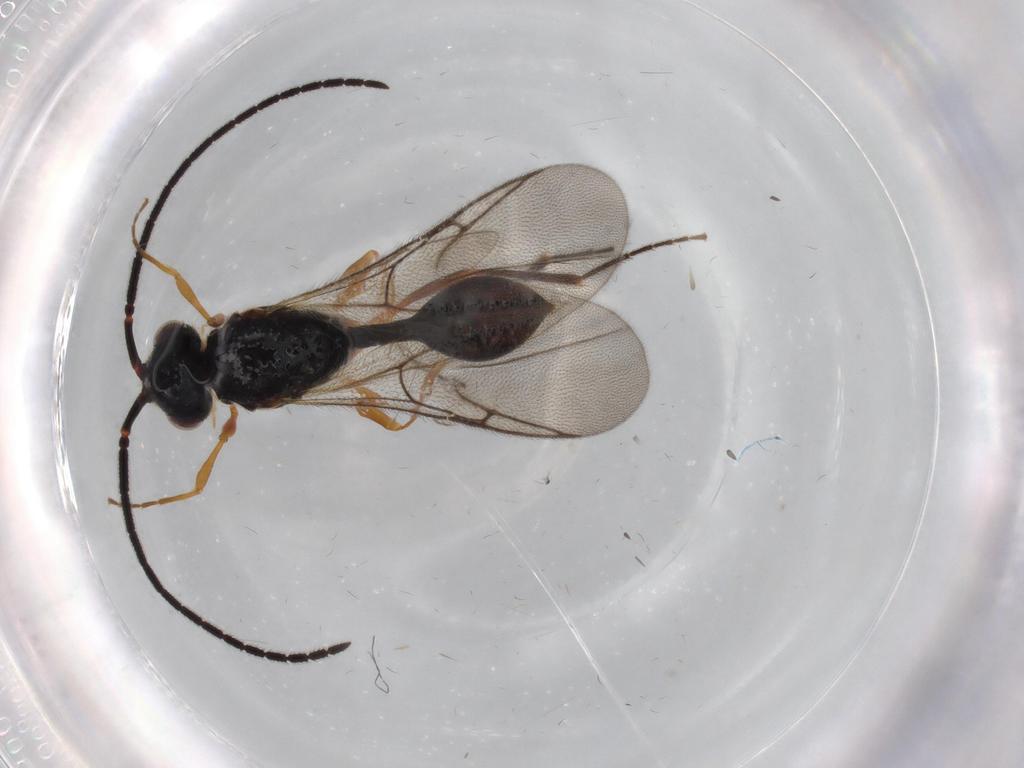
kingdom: Animalia
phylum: Arthropoda
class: Insecta
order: Hymenoptera
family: Diapriidae
